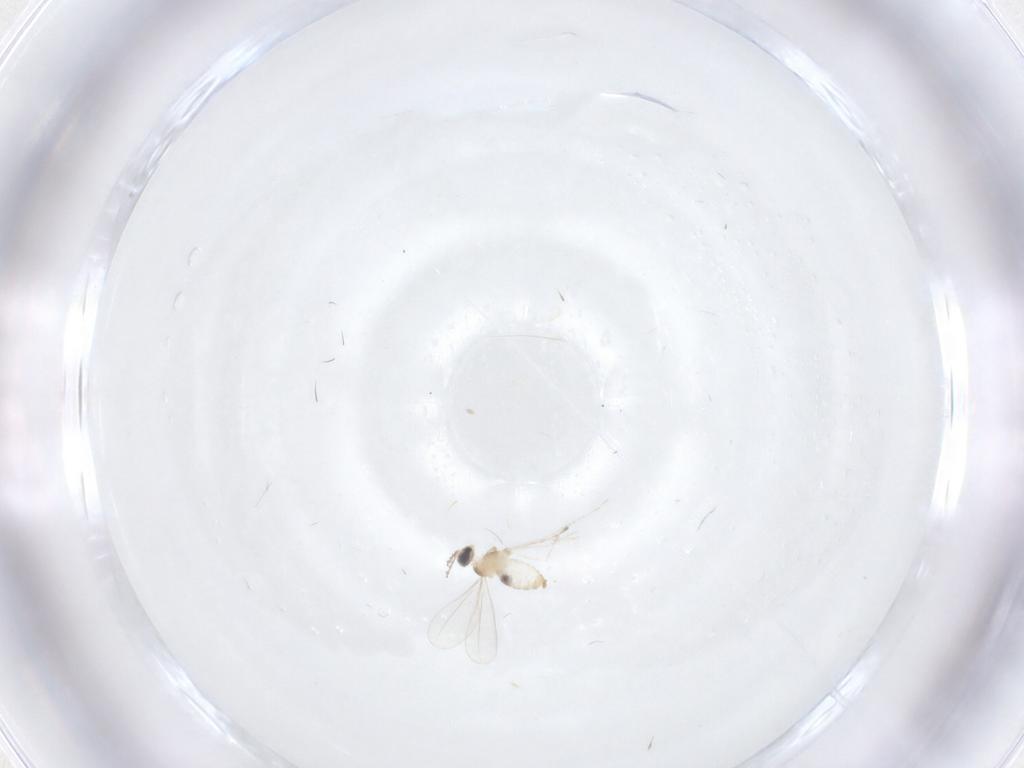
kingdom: Animalia
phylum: Arthropoda
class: Insecta
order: Diptera
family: Cecidomyiidae
